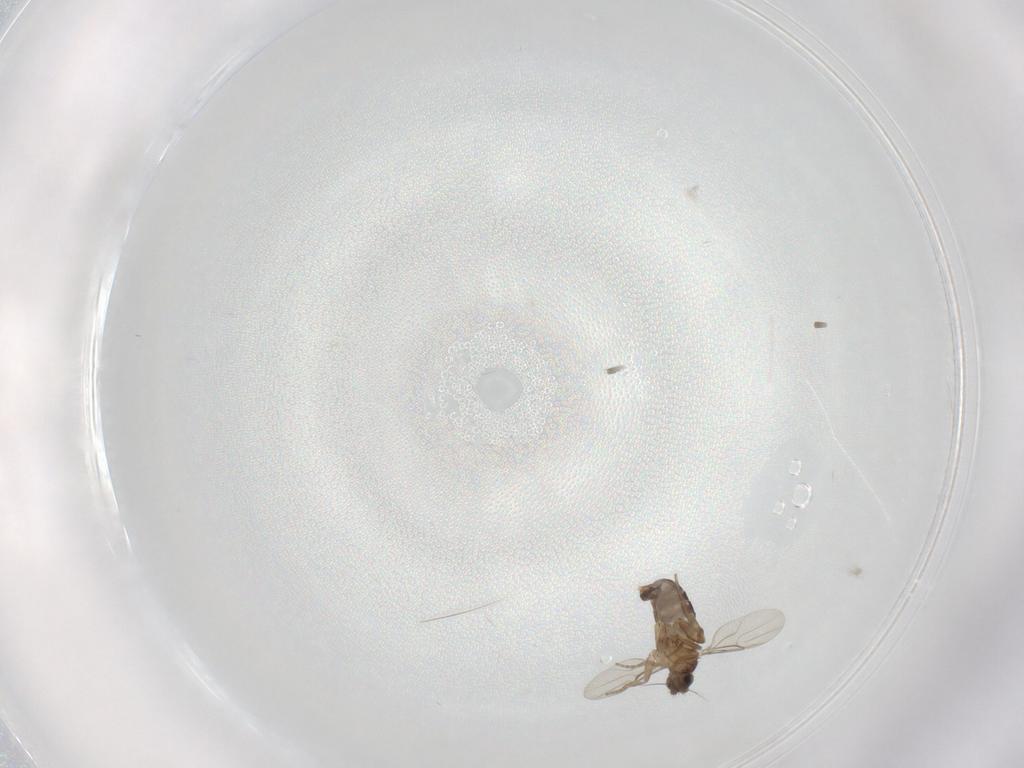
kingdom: Animalia
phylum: Arthropoda
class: Insecta
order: Diptera
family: Phoridae
